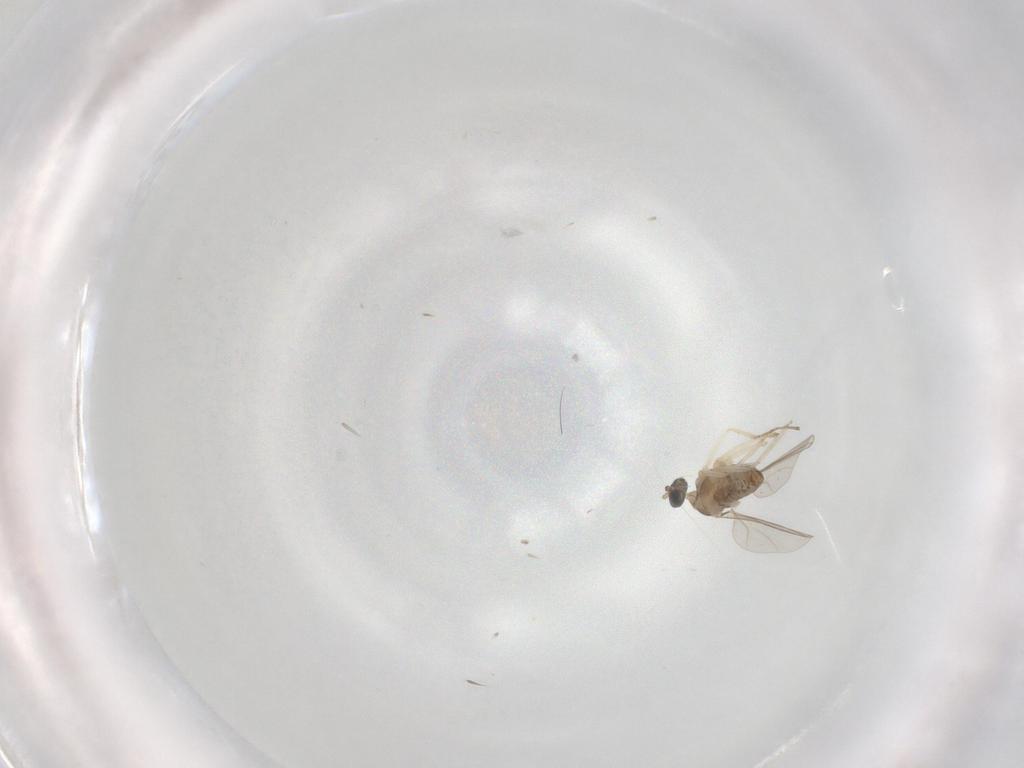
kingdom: Animalia
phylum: Arthropoda
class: Insecta
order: Diptera
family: Cecidomyiidae
